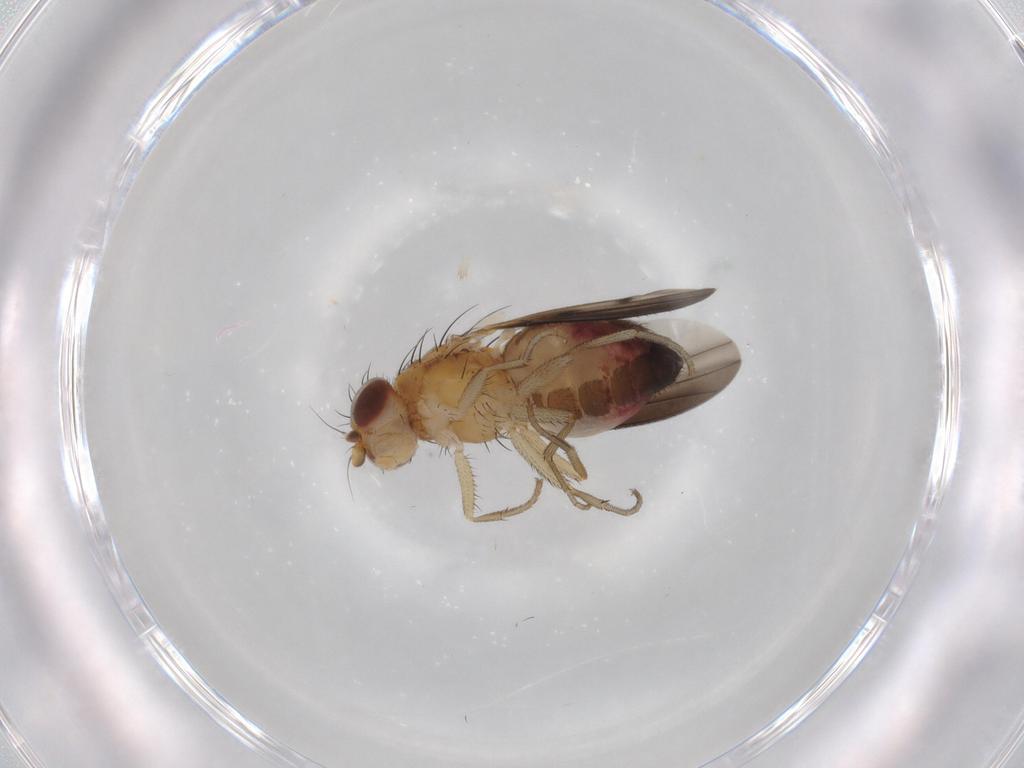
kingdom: Animalia
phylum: Arthropoda
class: Insecta
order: Diptera
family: Heleomyzidae
